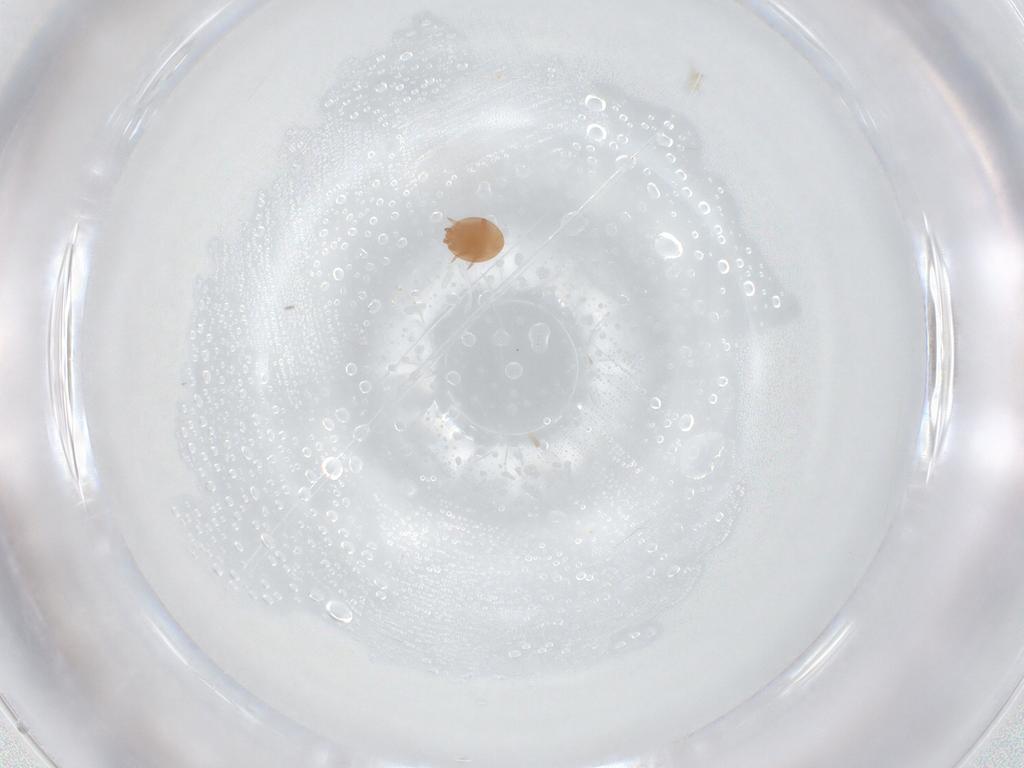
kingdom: Animalia
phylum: Arthropoda
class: Arachnida
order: Mesostigmata
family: Trematuridae
